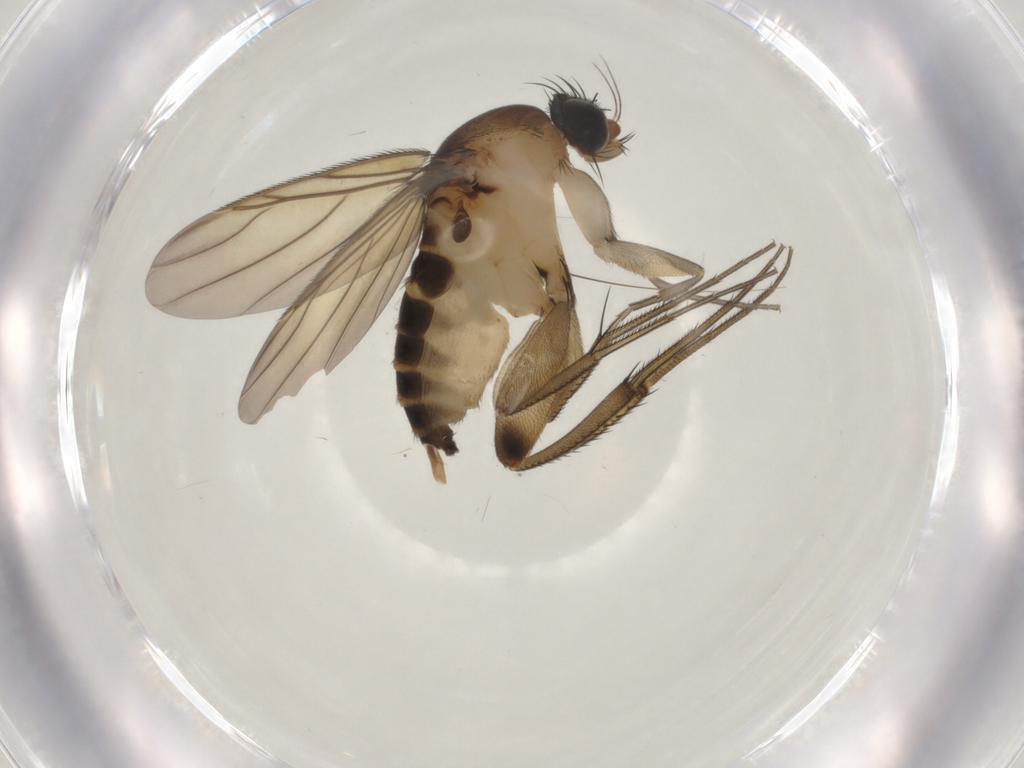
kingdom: Animalia
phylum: Arthropoda
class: Insecta
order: Diptera
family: Phoridae
